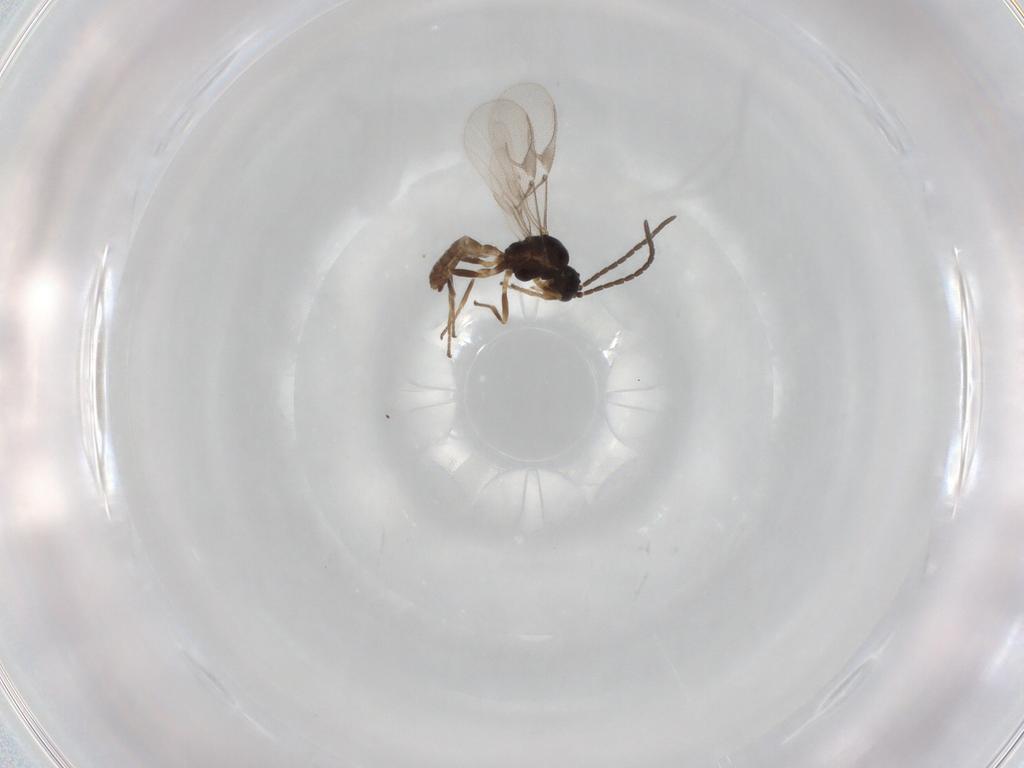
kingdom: Animalia
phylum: Arthropoda
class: Insecta
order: Hymenoptera
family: Braconidae
